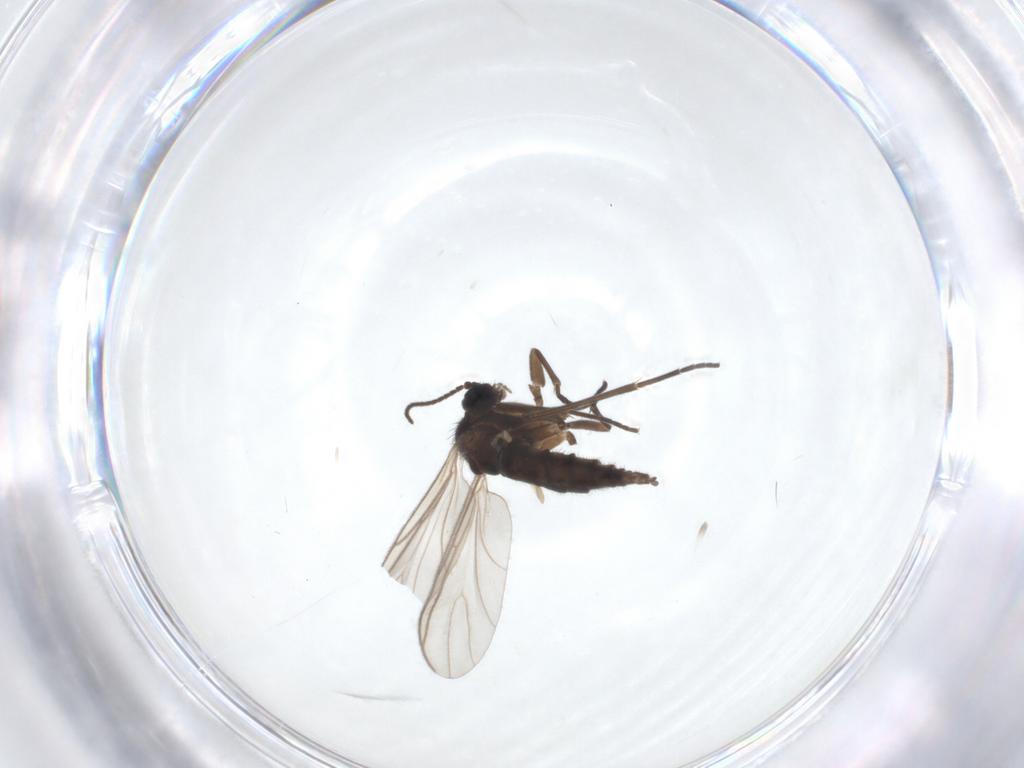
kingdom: Animalia
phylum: Arthropoda
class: Insecta
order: Diptera
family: Sciaridae
